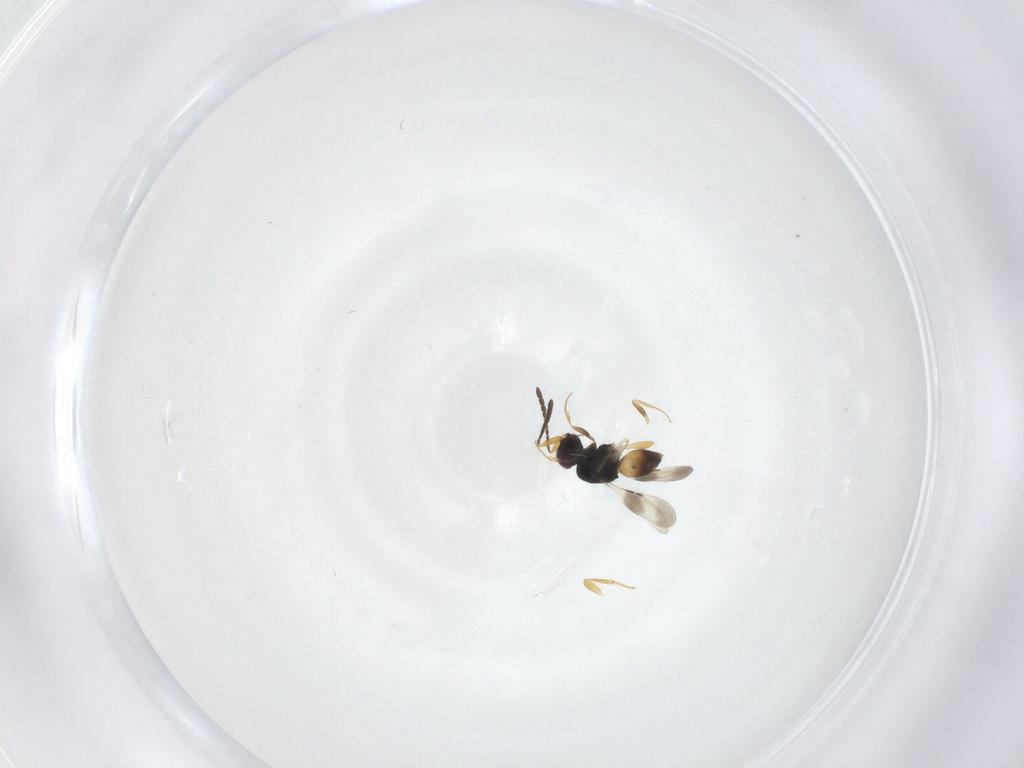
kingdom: Animalia
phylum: Arthropoda
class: Insecta
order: Hymenoptera
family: Ceraphronidae
